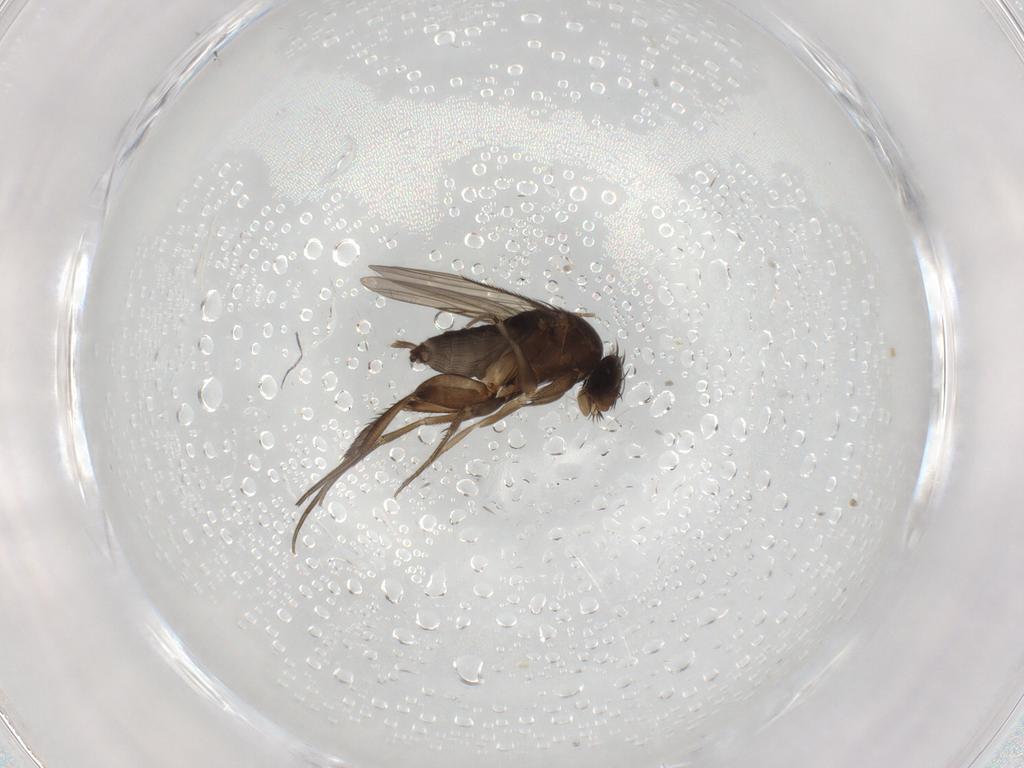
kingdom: Animalia
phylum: Arthropoda
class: Insecta
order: Diptera
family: Phoridae
